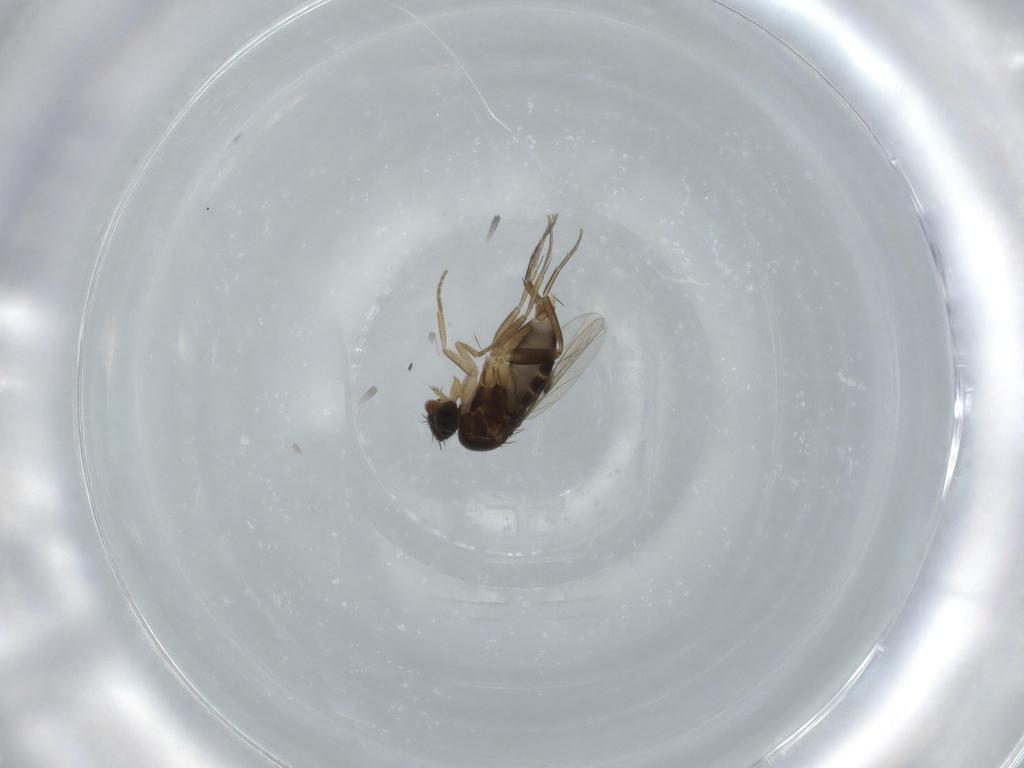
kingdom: Animalia
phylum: Arthropoda
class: Insecta
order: Diptera
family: Phoridae
